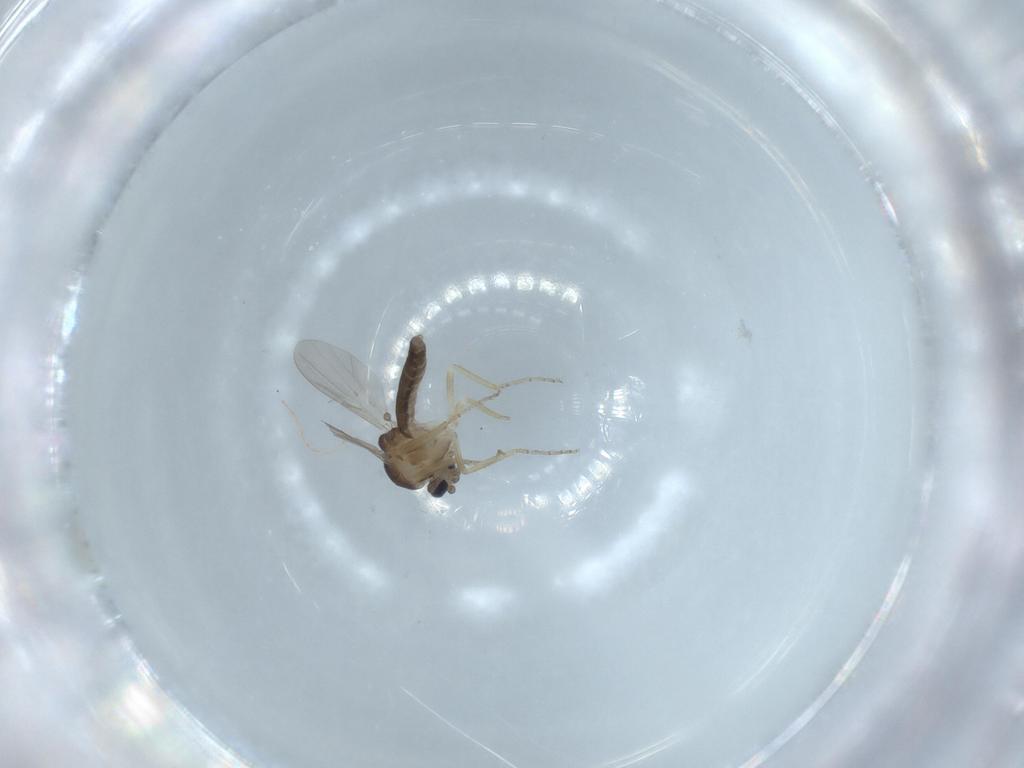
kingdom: Animalia
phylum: Arthropoda
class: Insecta
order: Diptera
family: Ceratopogonidae
